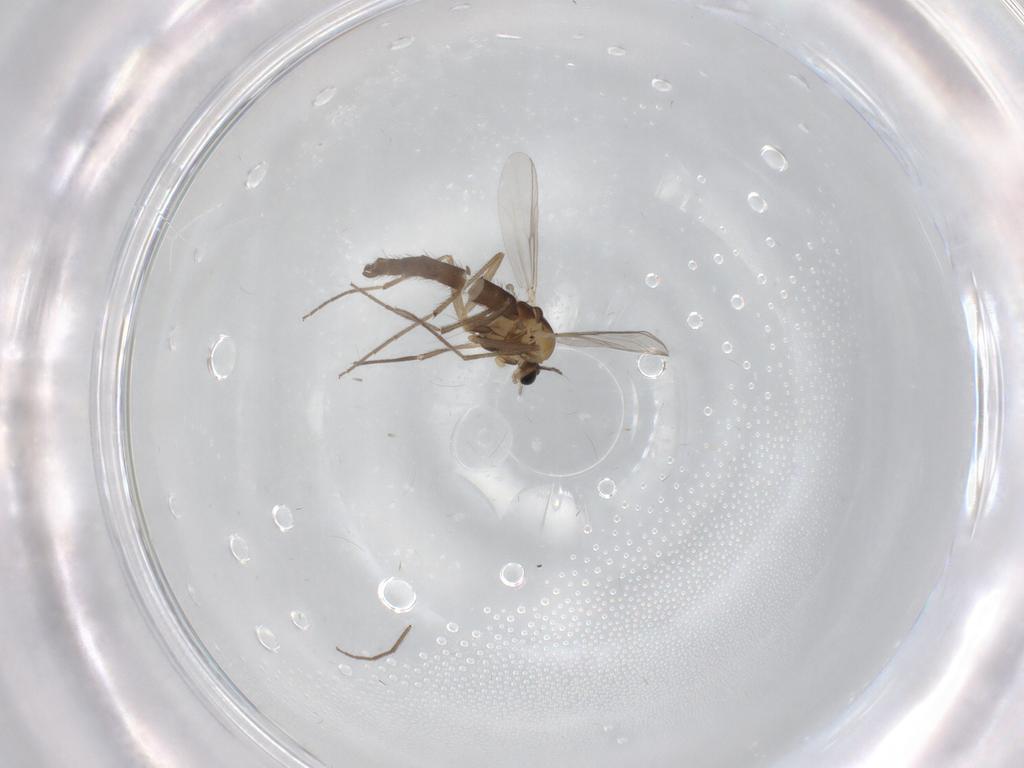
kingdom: Animalia
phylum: Arthropoda
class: Insecta
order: Diptera
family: Chironomidae
